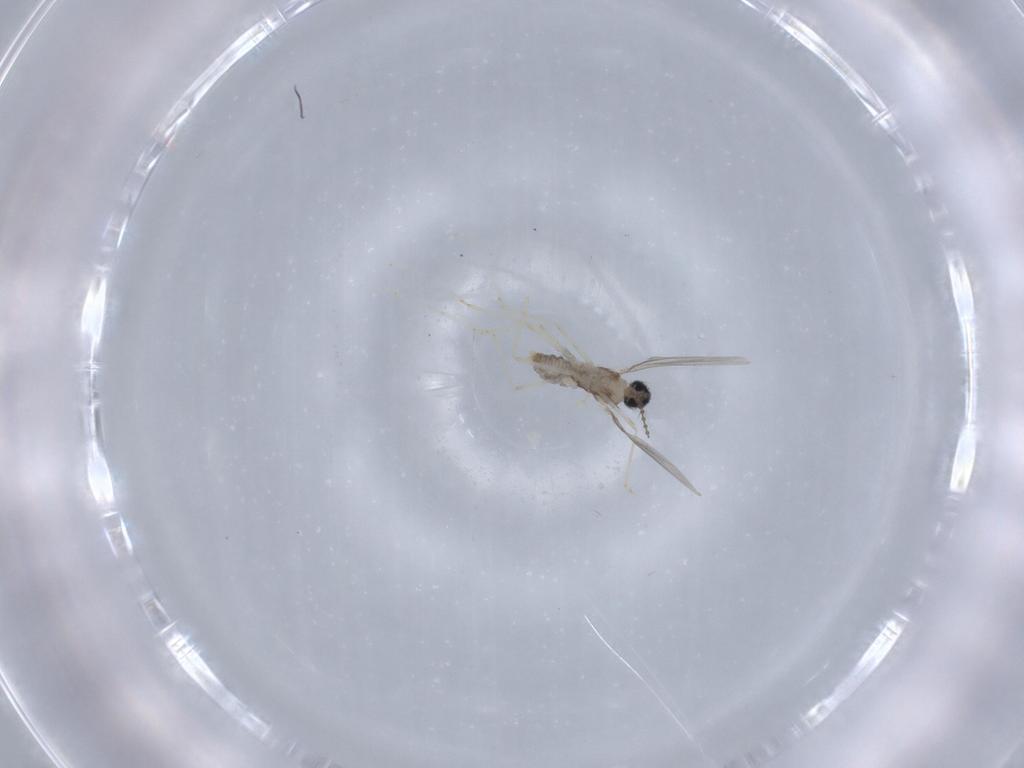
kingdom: Animalia
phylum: Arthropoda
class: Insecta
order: Diptera
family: Cecidomyiidae
